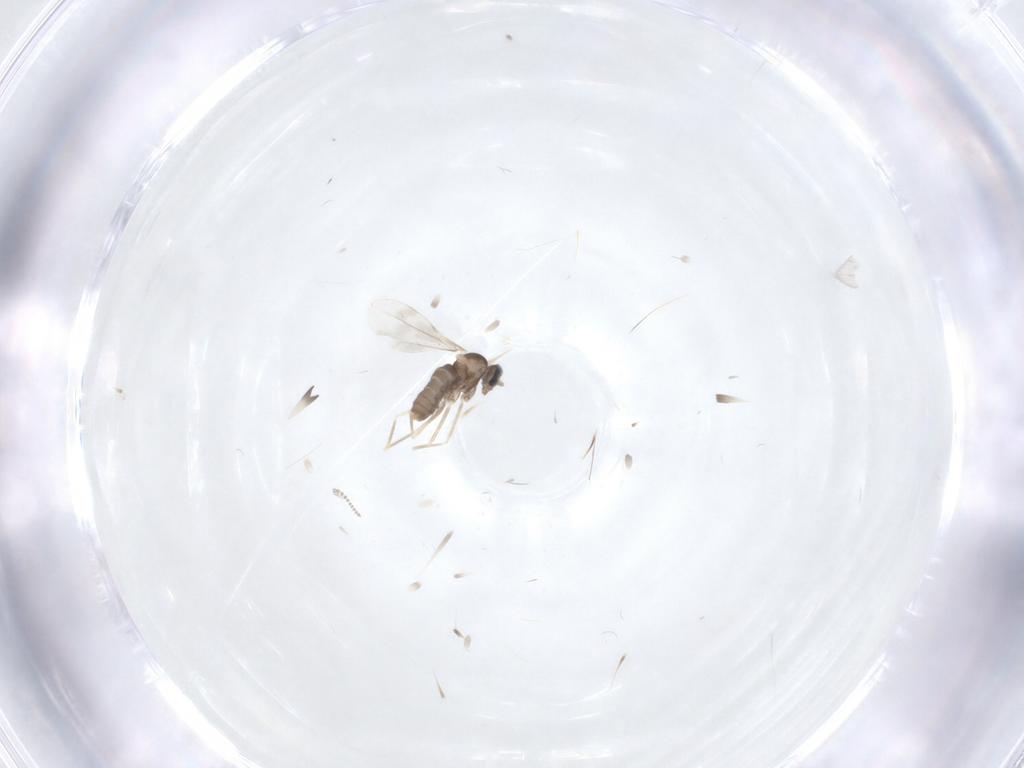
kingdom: Animalia
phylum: Arthropoda
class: Insecta
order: Diptera
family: Cecidomyiidae
